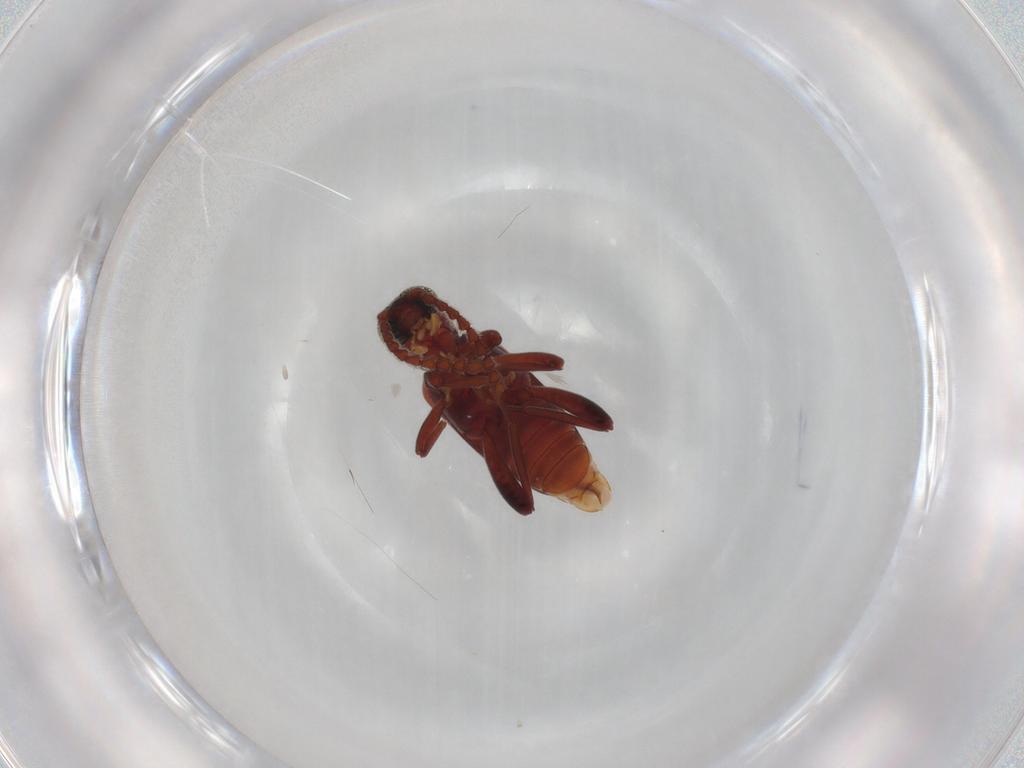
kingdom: Animalia
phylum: Arthropoda
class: Insecta
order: Coleoptera
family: Aderidae
